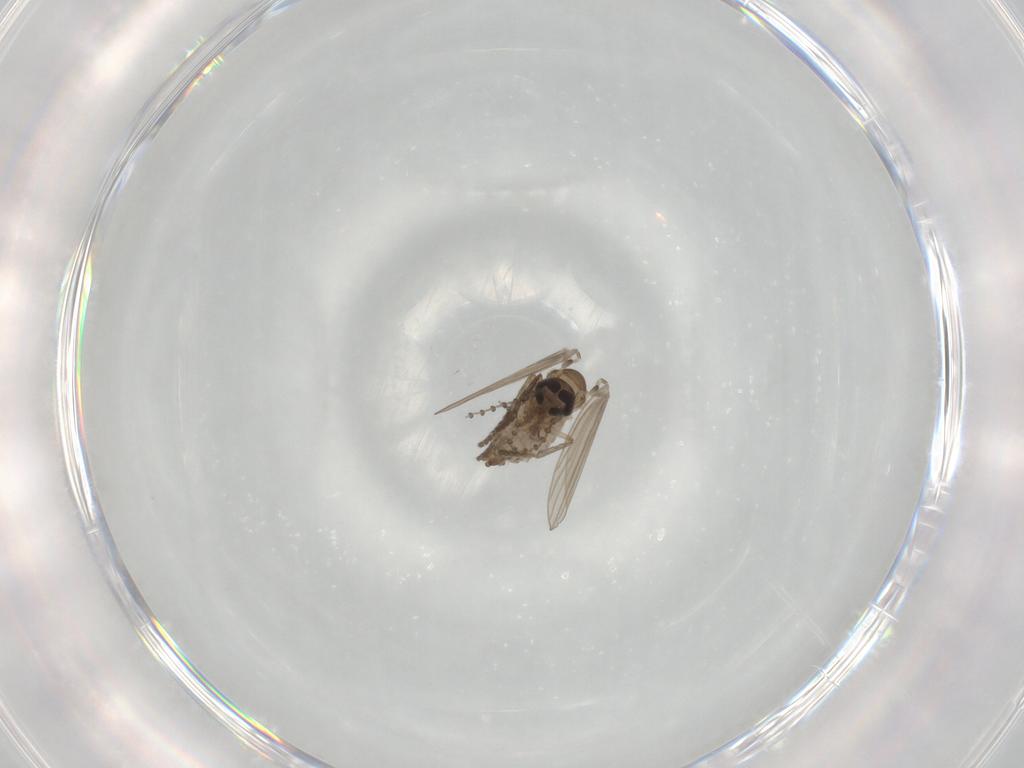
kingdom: Animalia
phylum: Arthropoda
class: Insecta
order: Diptera
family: Psychodidae
